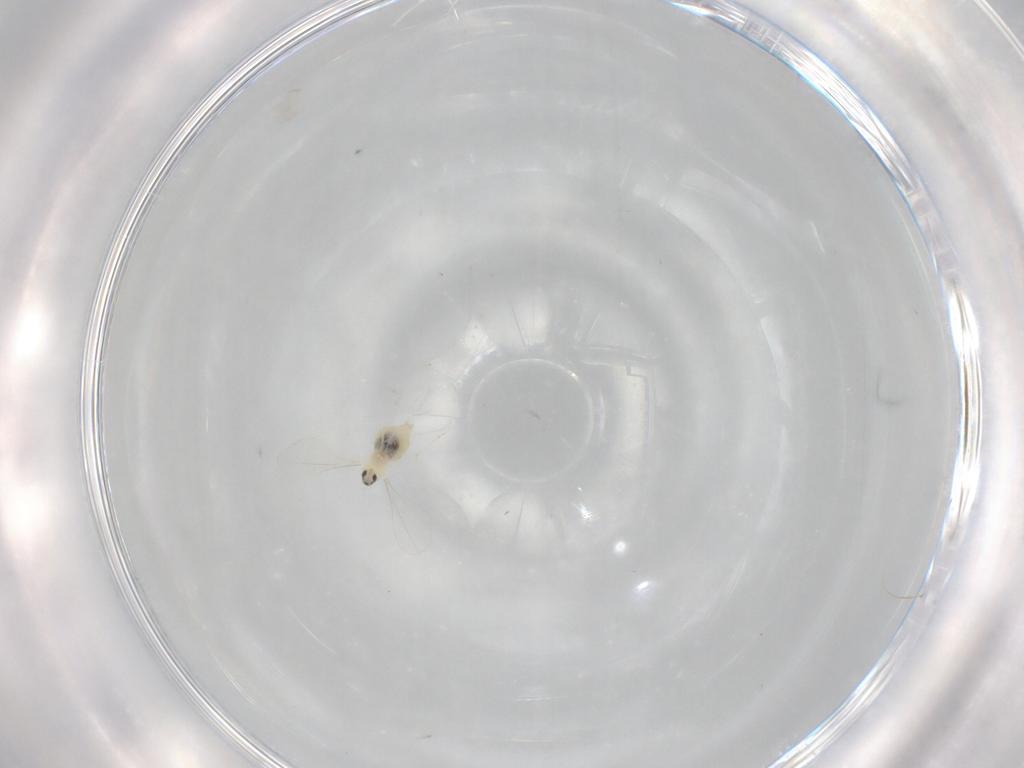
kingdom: Animalia
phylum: Arthropoda
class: Insecta
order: Diptera
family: Cecidomyiidae
